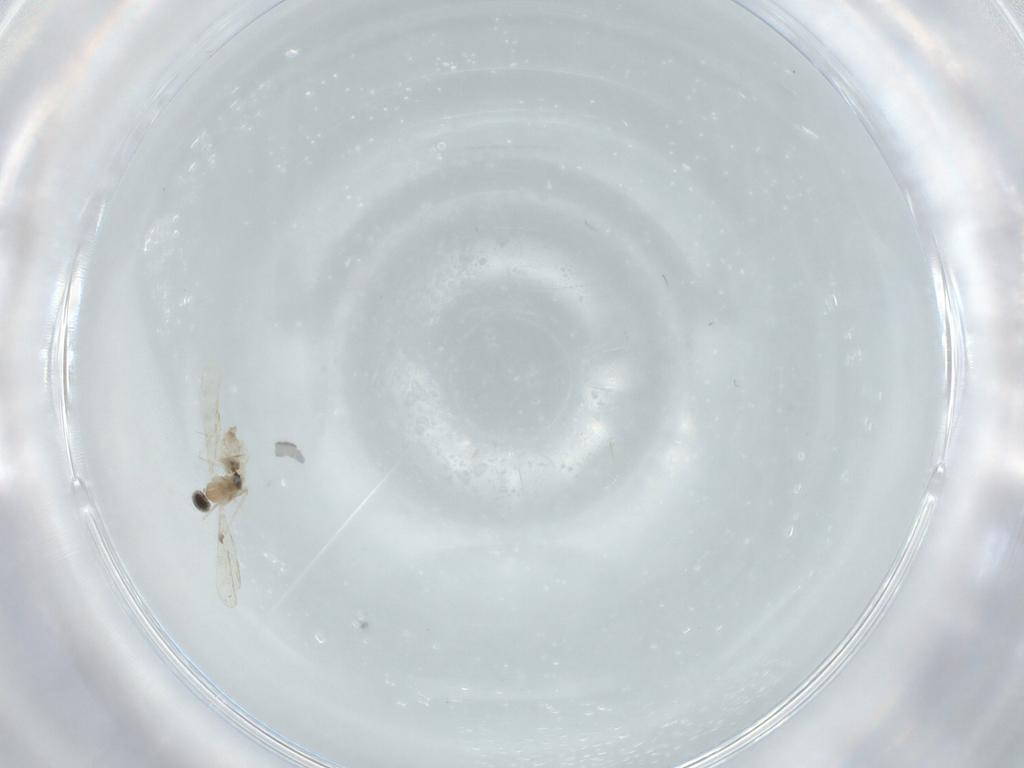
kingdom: Animalia
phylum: Arthropoda
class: Insecta
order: Diptera
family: Cecidomyiidae
